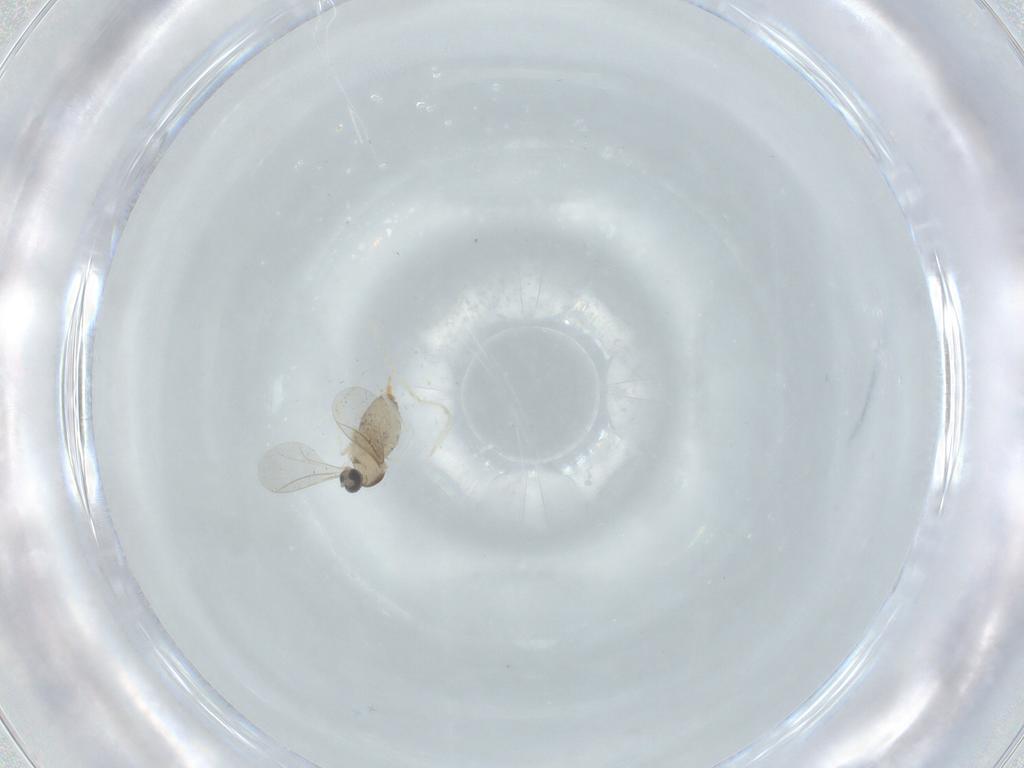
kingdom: Animalia
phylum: Arthropoda
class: Insecta
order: Diptera
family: Cecidomyiidae
